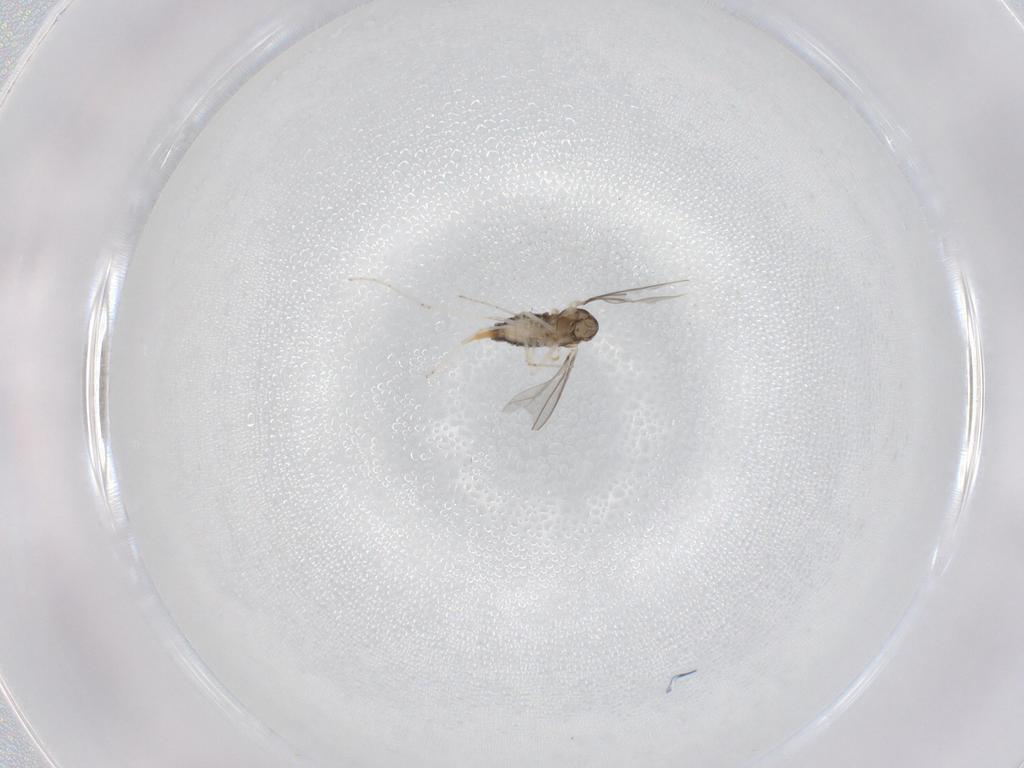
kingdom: Animalia
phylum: Arthropoda
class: Insecta
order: Diptera
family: Cecidomyiidae
